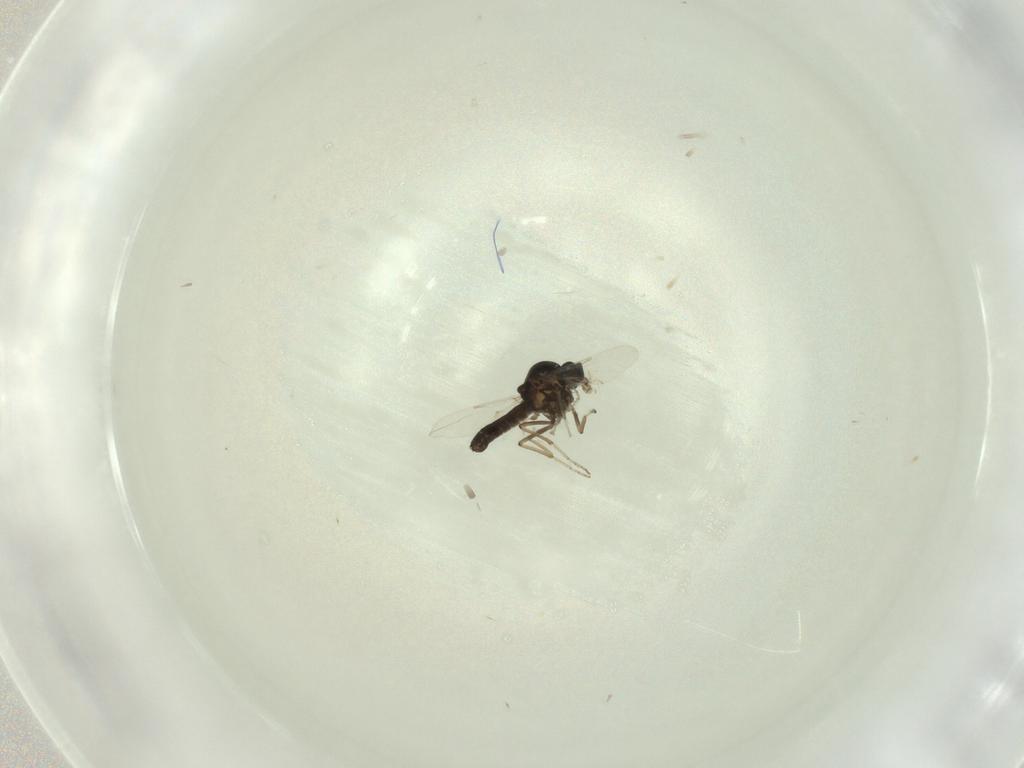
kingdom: Animalia
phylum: Arthropoda
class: Insecta
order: Diptera
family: Ceratopogonidae
